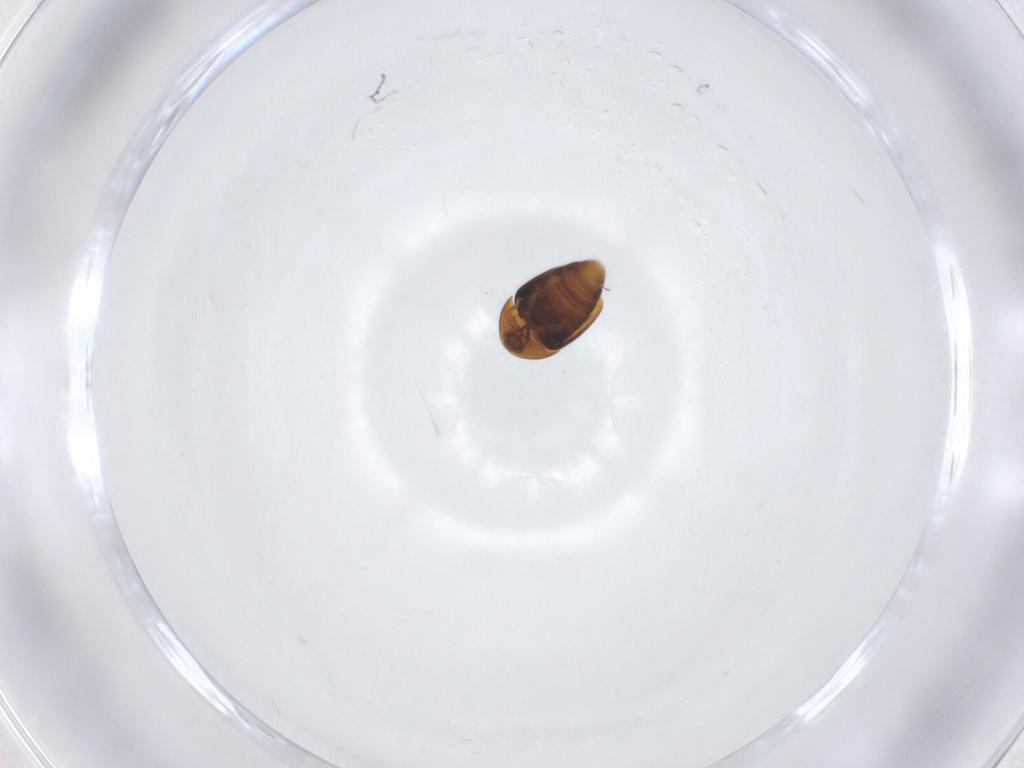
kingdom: Animalia
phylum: Arthropoda
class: Insecta
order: Coleoptera
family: Corylophidae
